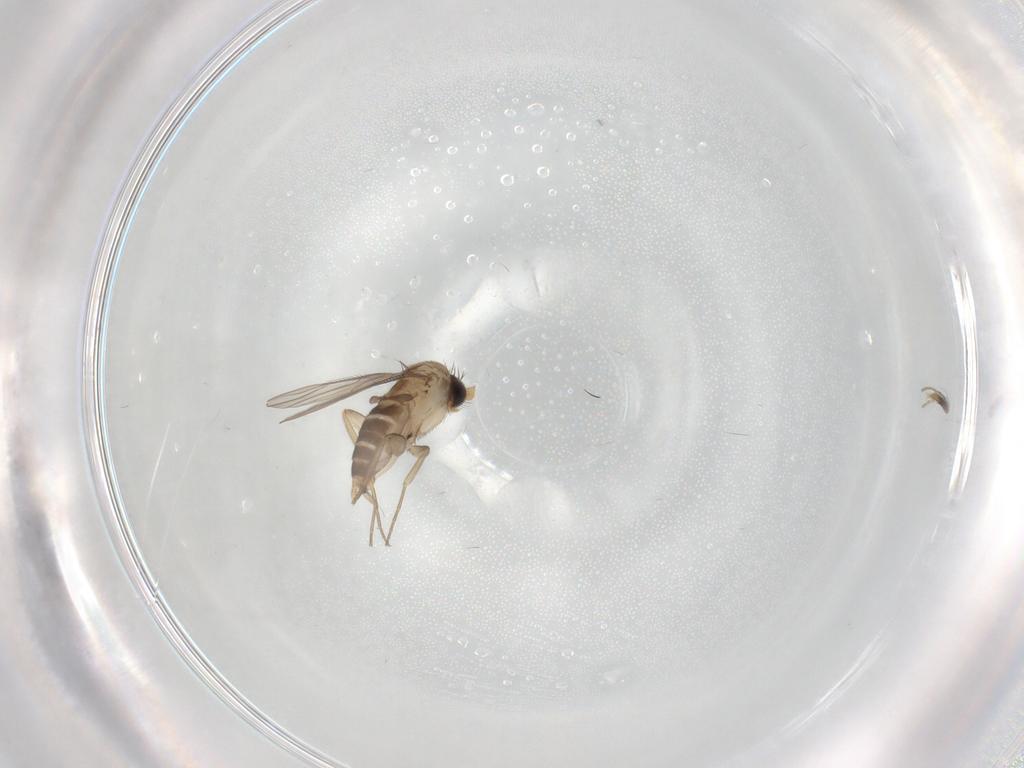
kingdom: Animalia
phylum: Arthropoda
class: Insecta
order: Diptera
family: Phoridae
